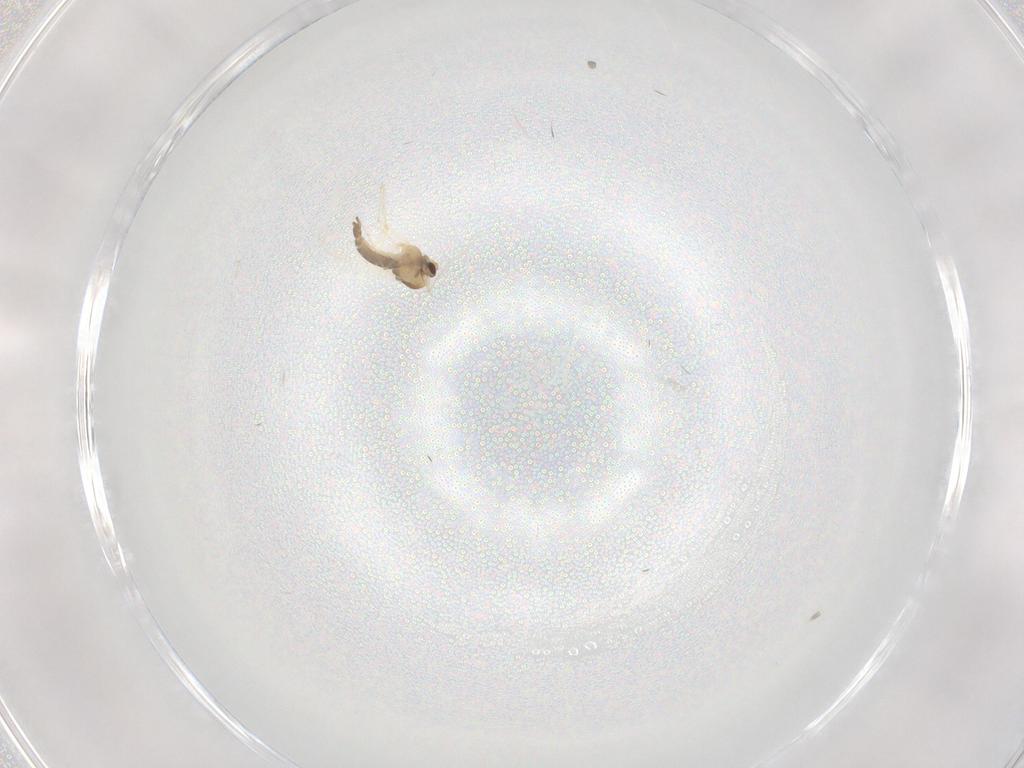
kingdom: Animalia
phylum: Arthropoda
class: Insecta
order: Diptera
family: Chironomidae
